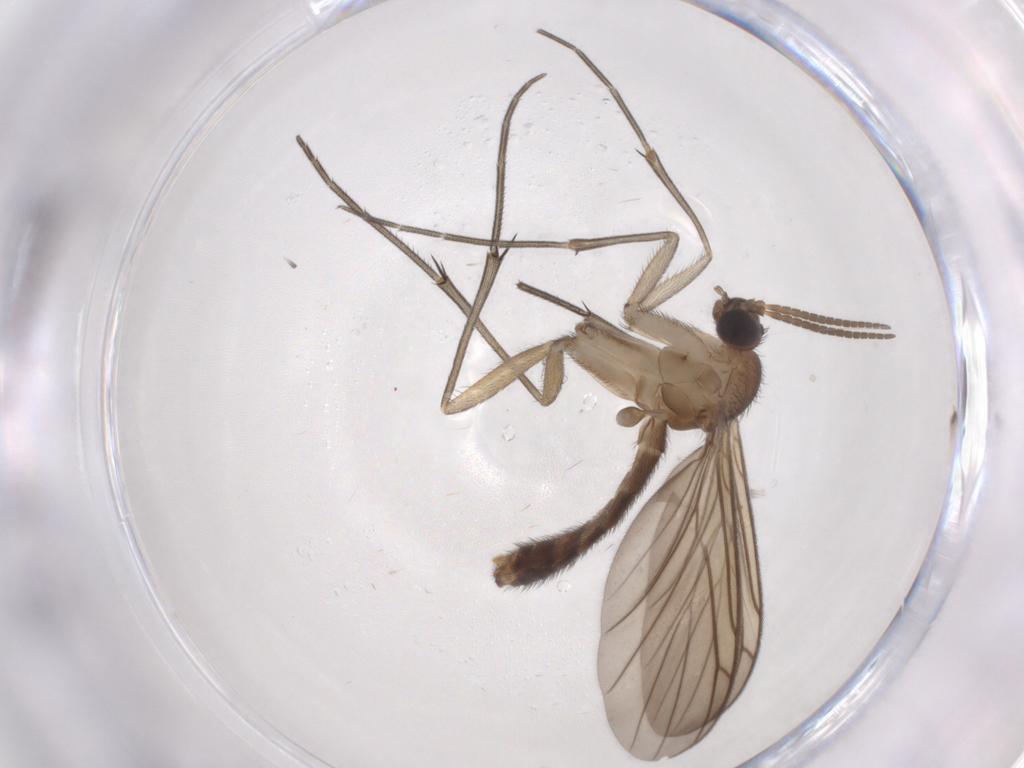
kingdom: Animalia
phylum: Arthropoda
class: Insecta
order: Diptera
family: Keroplatidae
